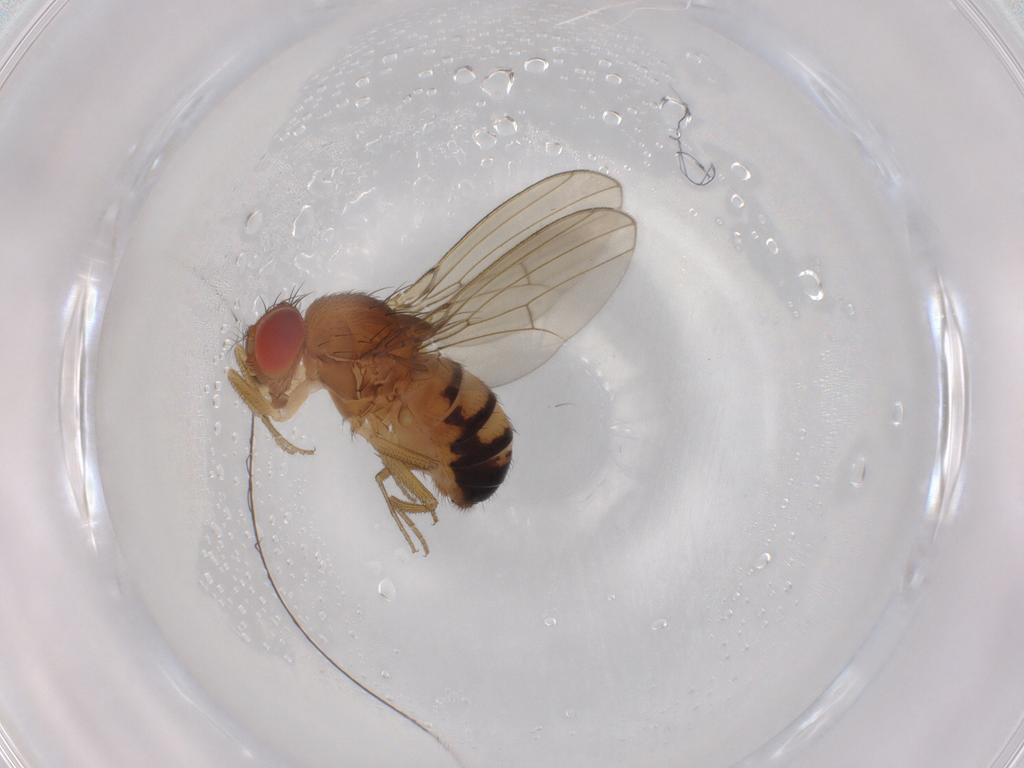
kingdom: Animalia
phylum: Arthropoda
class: Insecta
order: Diptera
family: Drosophilidae
